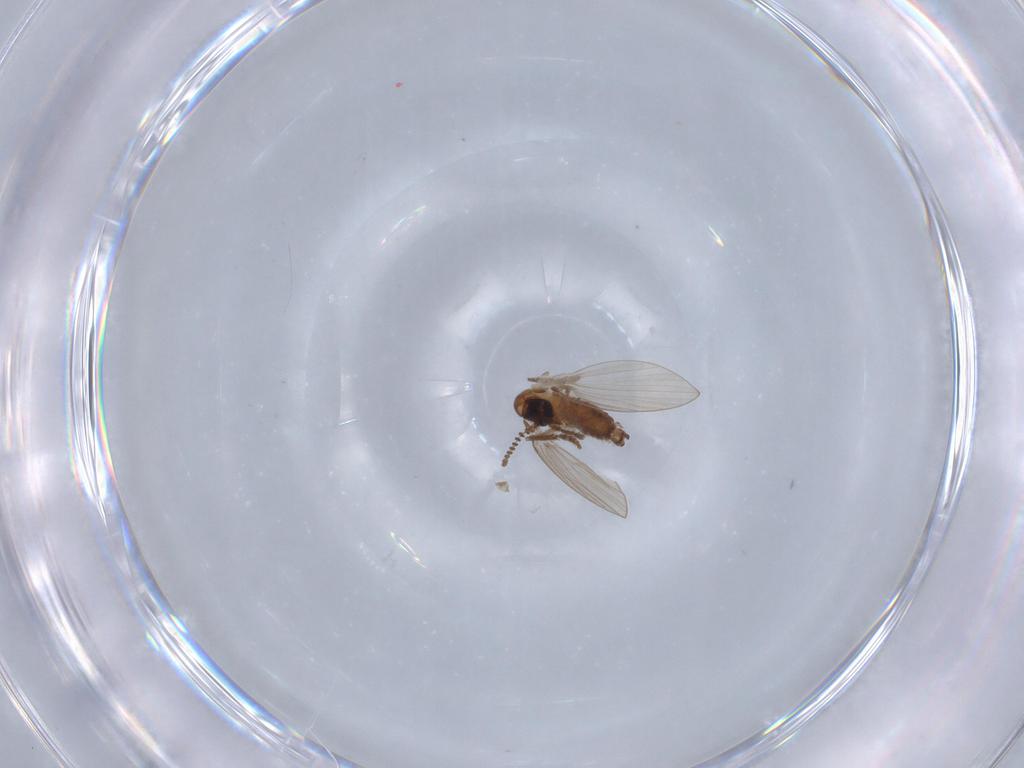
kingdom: Animalia
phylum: Arthropoda
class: Insecta
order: Diptera
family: Psychodidae
